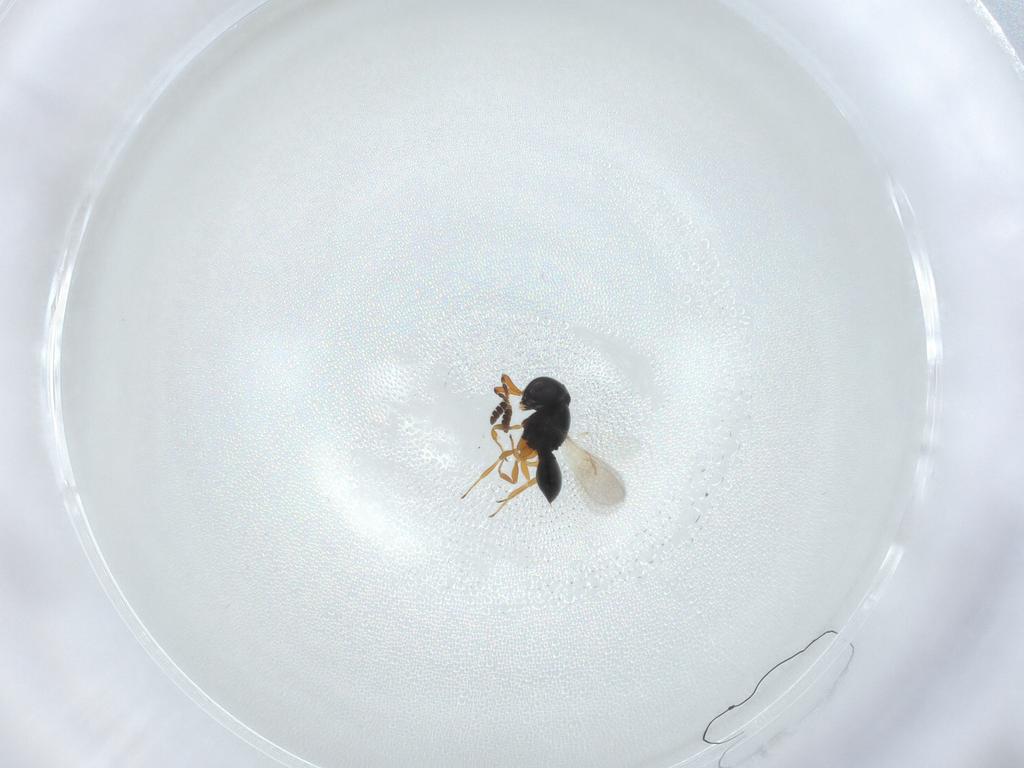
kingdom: Animalia
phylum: Arthropoda
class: Insecta
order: Hymenoptera
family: Scelionidae
